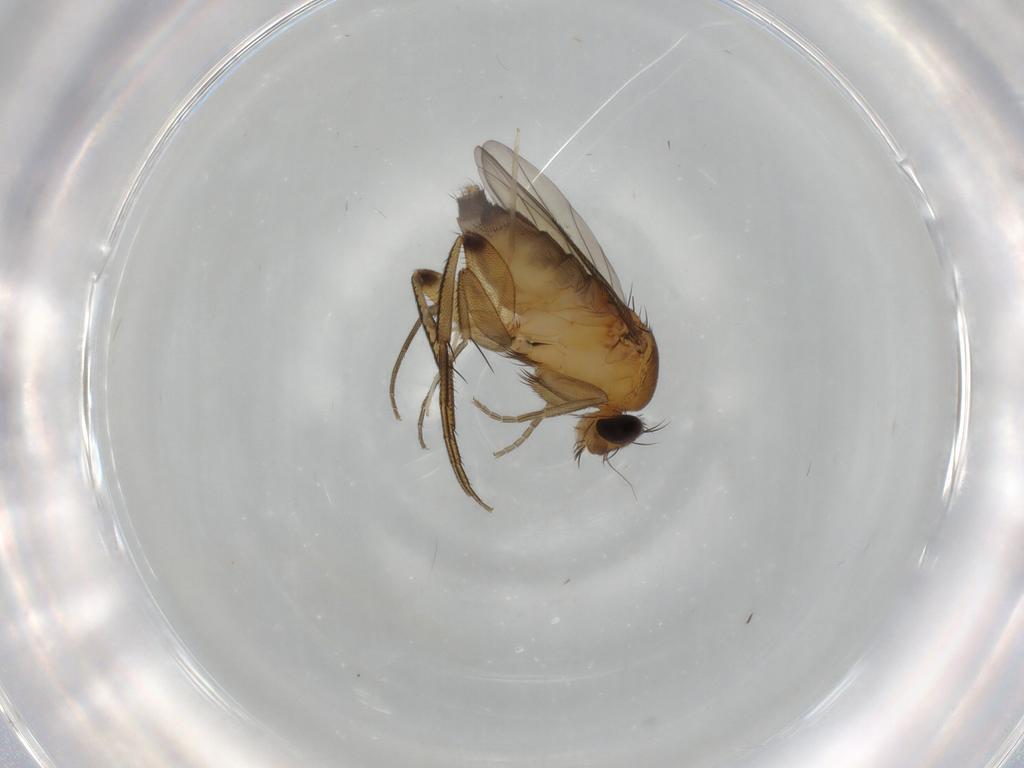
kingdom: Animalia
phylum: Arthropoda
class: Insecta
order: Diptera
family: Phoridae
